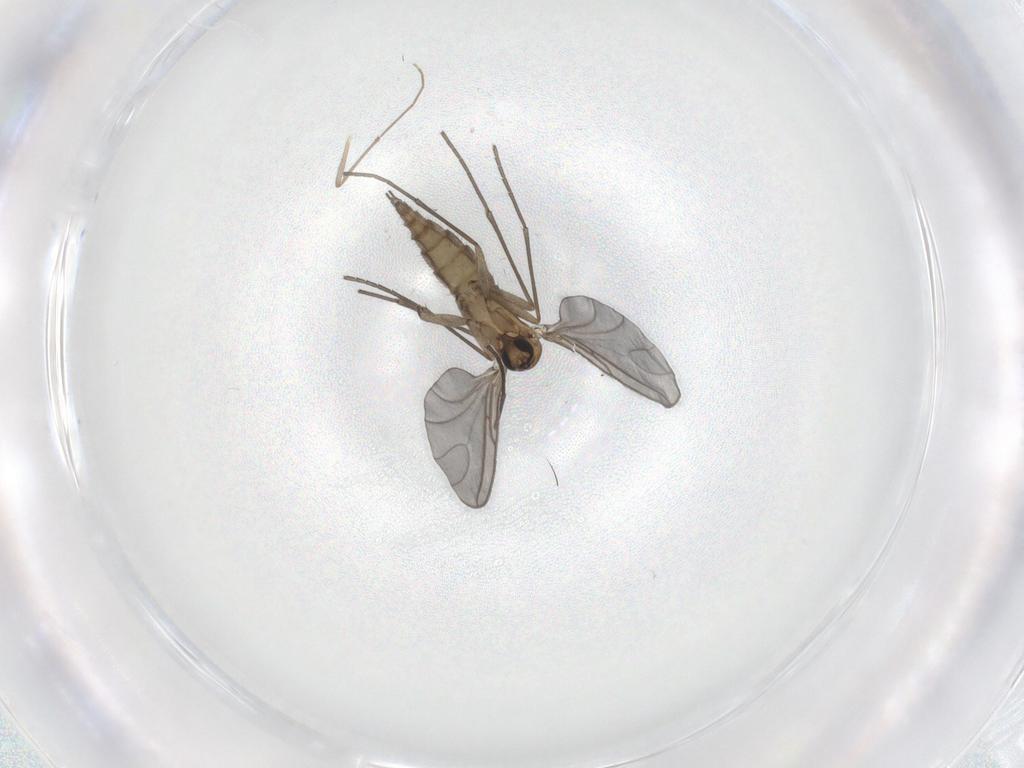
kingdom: Animalia
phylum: Arthropoda
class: Insecta
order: Diptera
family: Sciaridae
